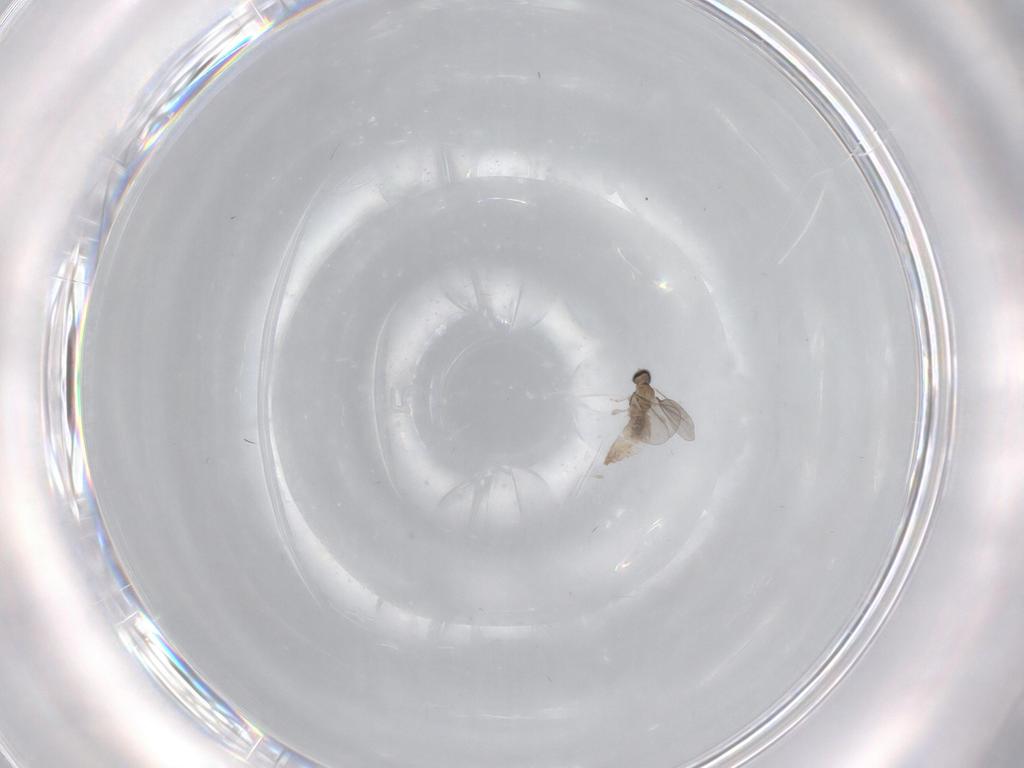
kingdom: Animalia
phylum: Arthropoda
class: Insecta
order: Diptera
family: Cecidomyiidae
